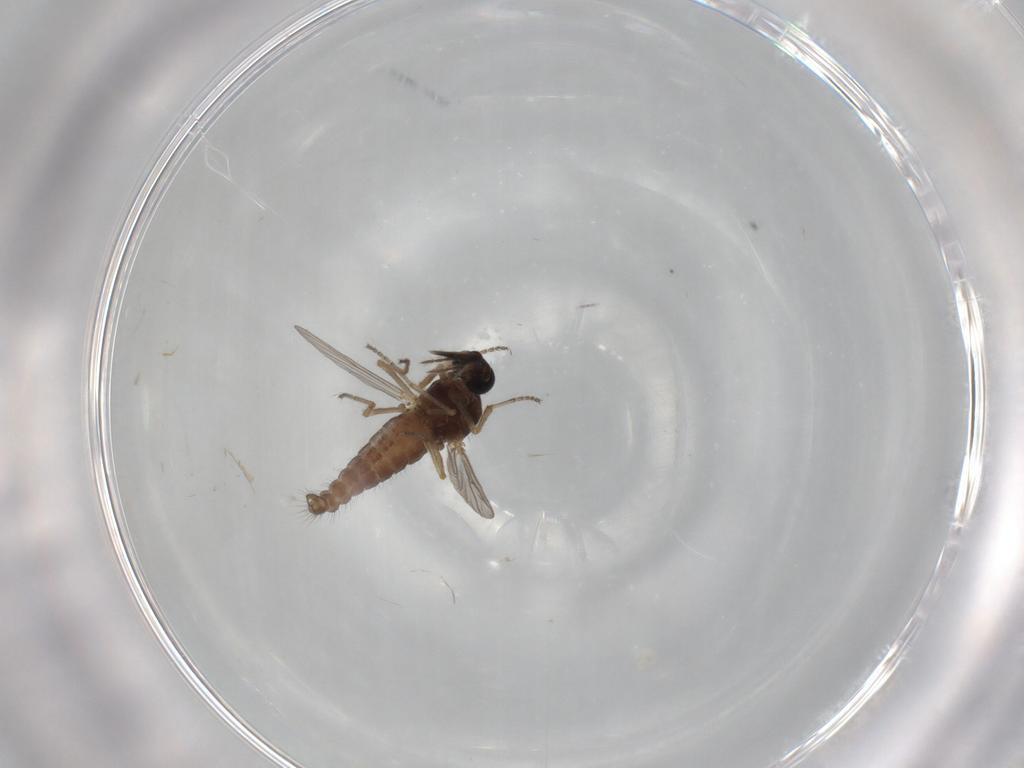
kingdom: Animalia
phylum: Arthropoda
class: Insecta
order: Diptera
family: Ceratopogonidae
